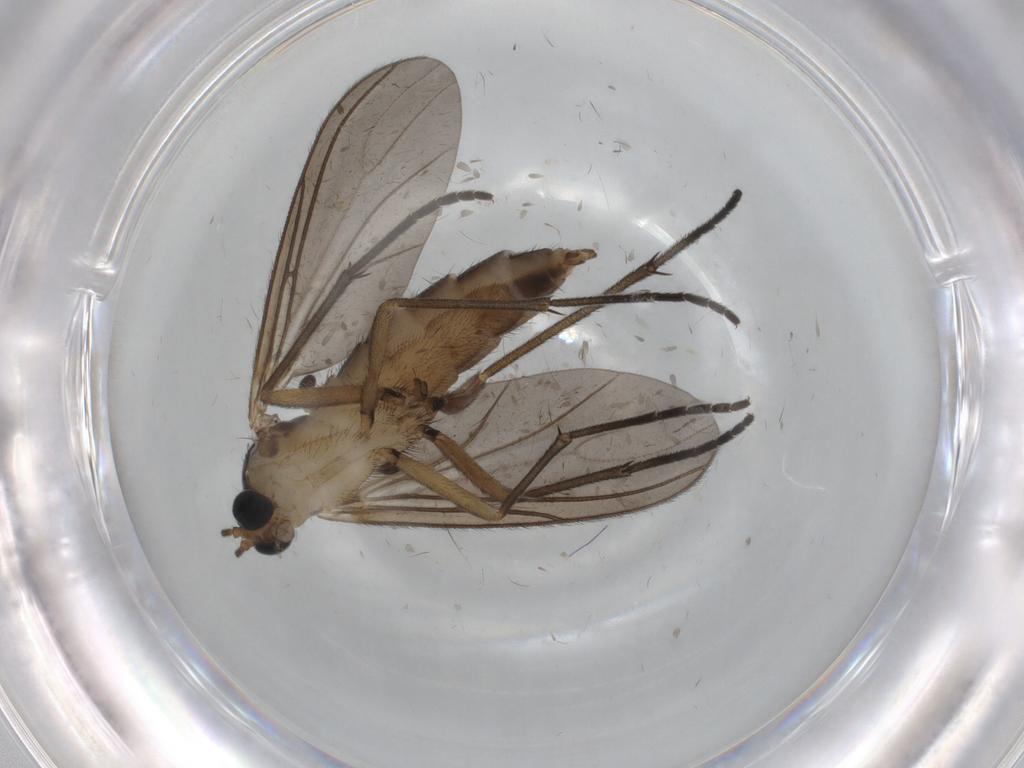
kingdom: Animalia
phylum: Arthropoda
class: Insecta
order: Diptera
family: Sciaridae
